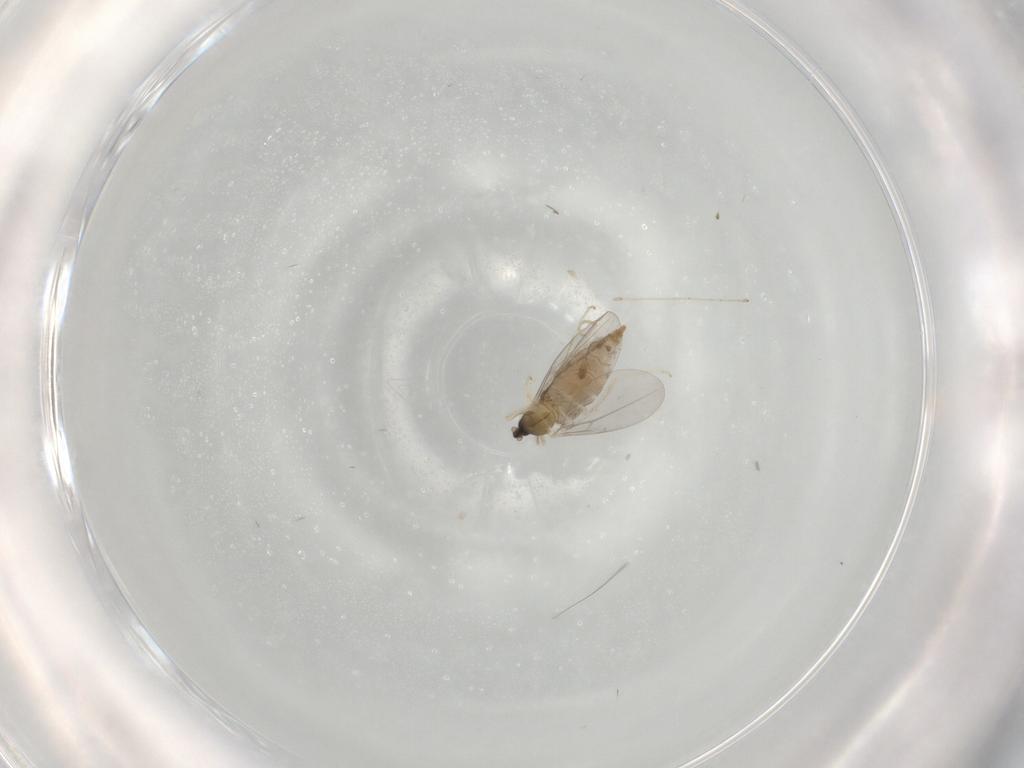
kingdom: Animalia
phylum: Arthropoda
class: Insecta
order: Diptera
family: Cecidomyiidae
